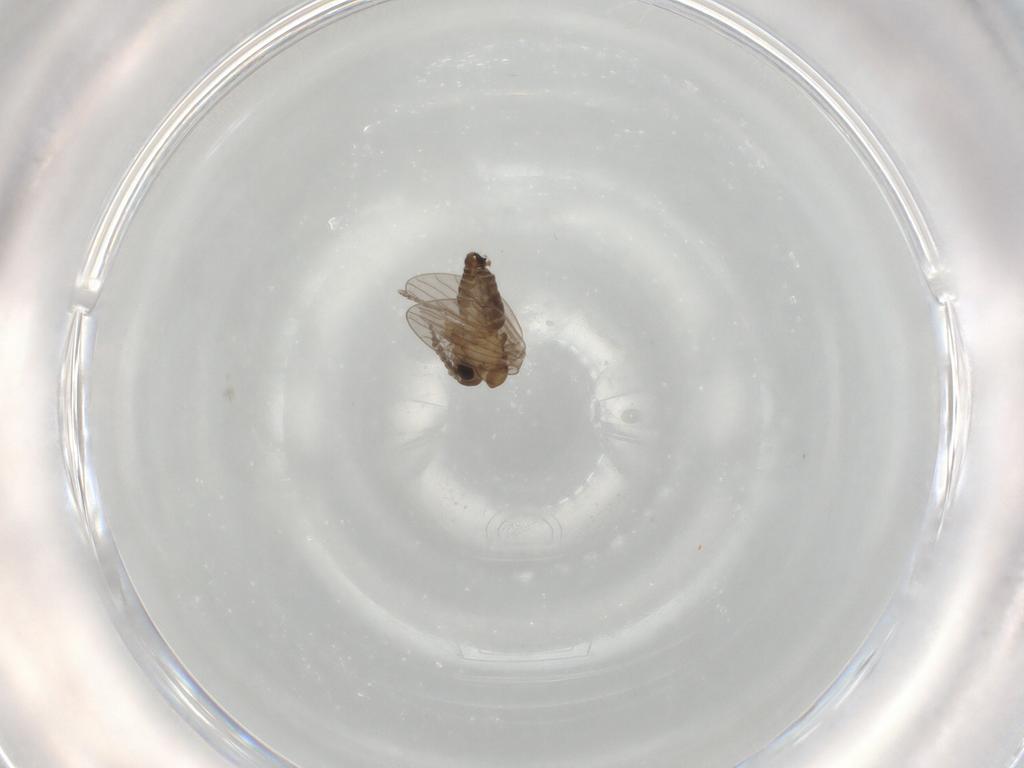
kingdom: Animalia
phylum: Arthropoda
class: Insecta
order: Diptera
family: Psychodidae
